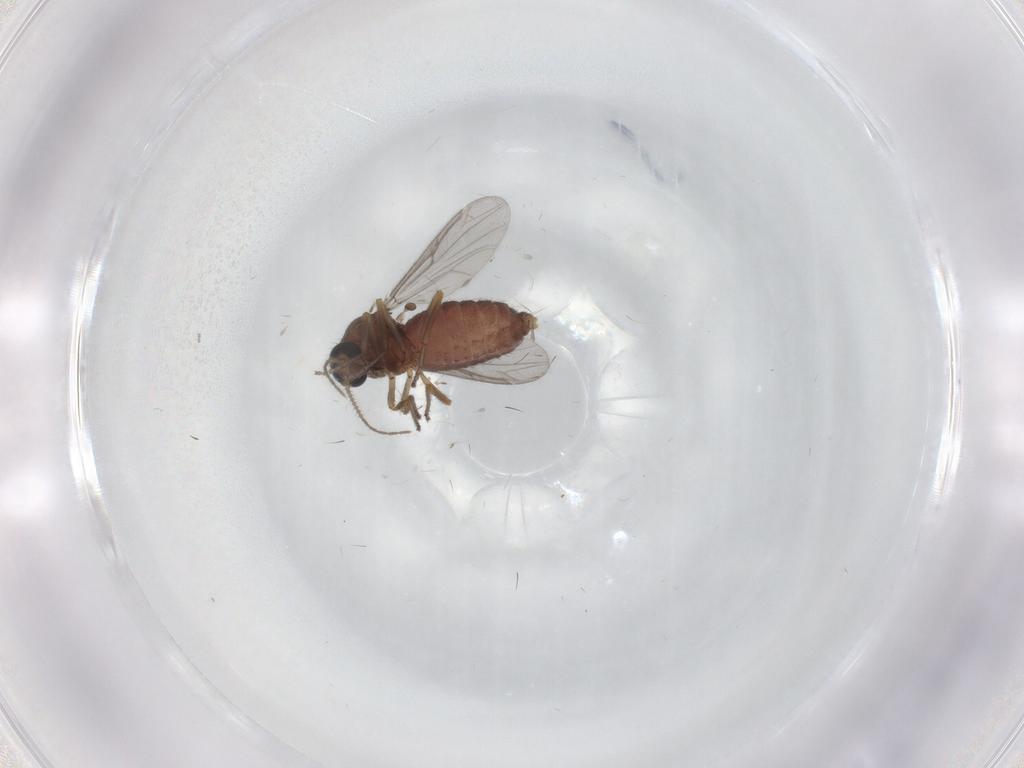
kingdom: Animalia
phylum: Arthropoda
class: Insecta
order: Diptera
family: Ceratopogonidae
